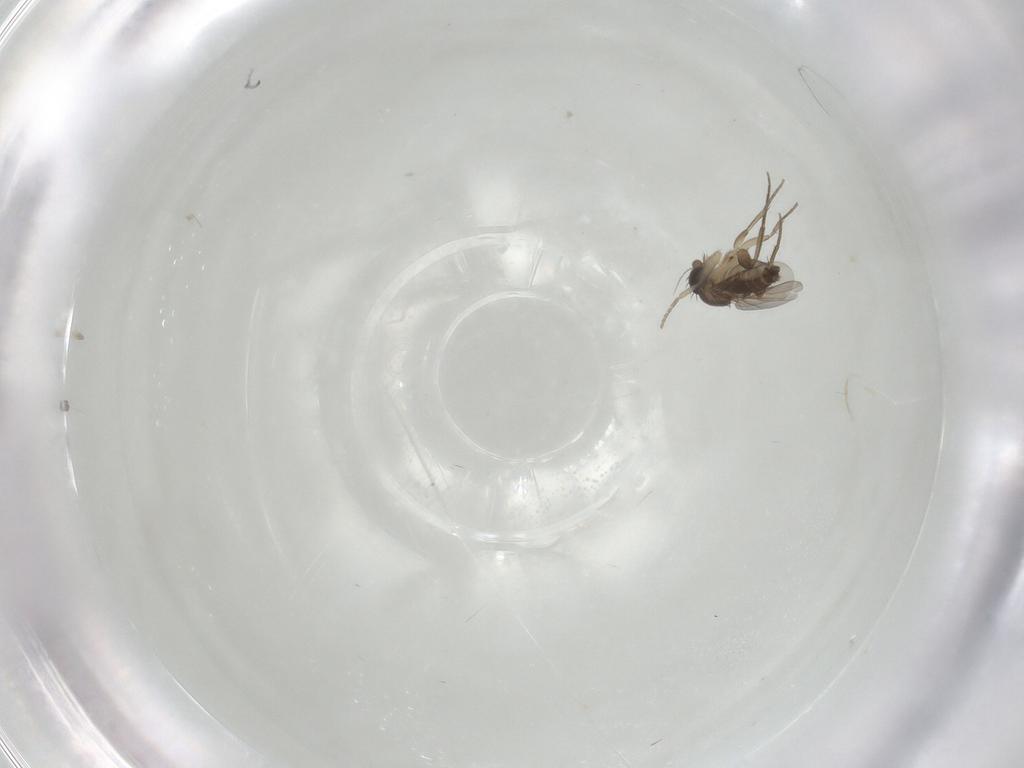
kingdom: Animalia
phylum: Arthropoda
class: Insecta
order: Diptera
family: Phoridae
